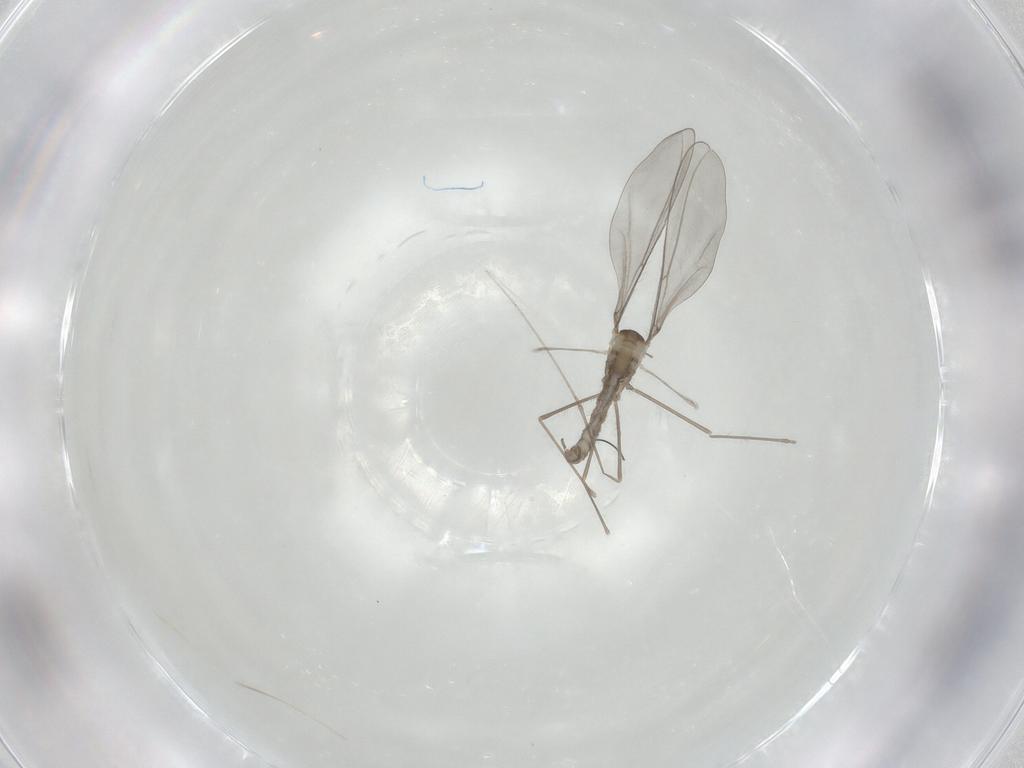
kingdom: Animalia
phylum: Arthropoda
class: Insecta
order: Diptera
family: Cecidomyiidae
